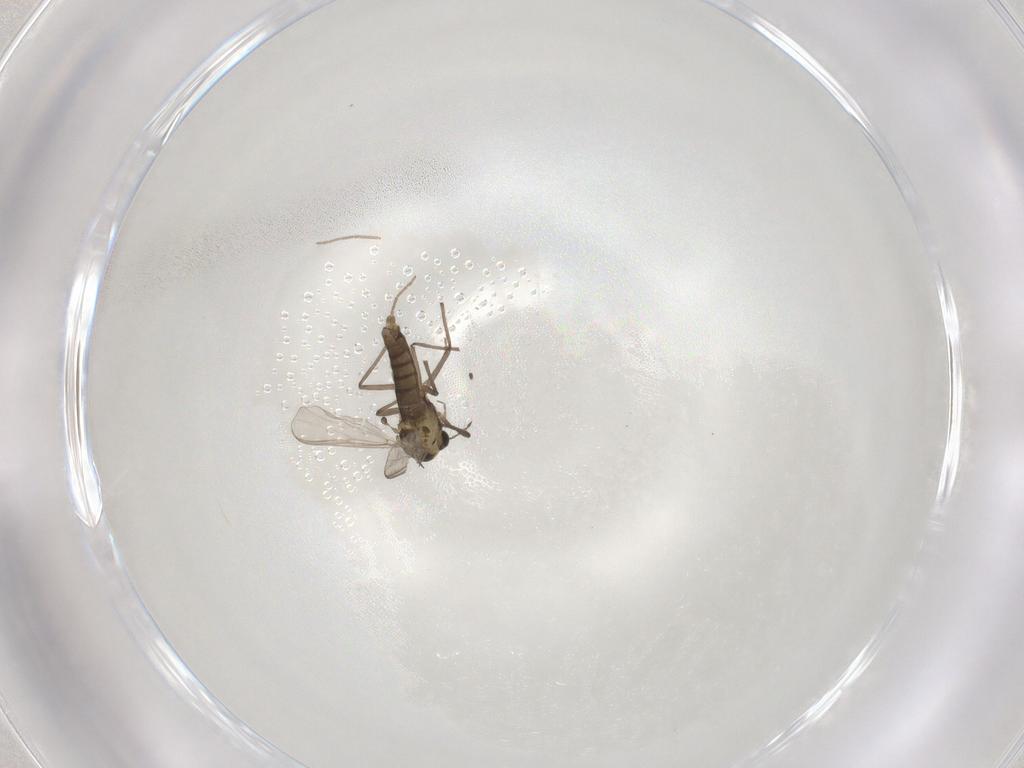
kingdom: Animalia
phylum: Arthropoda
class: Insecta
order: Diptera
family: Chironomidae
